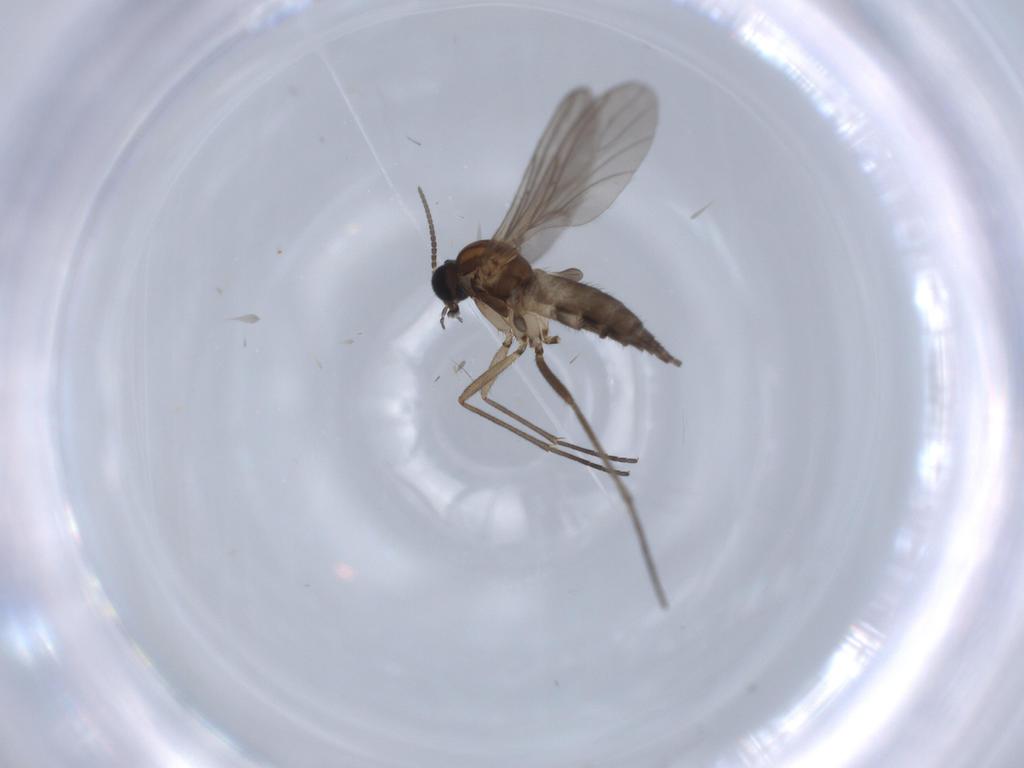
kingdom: Animalia
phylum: Arthropoda
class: Insecta
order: Diptera
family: Sciaridae
